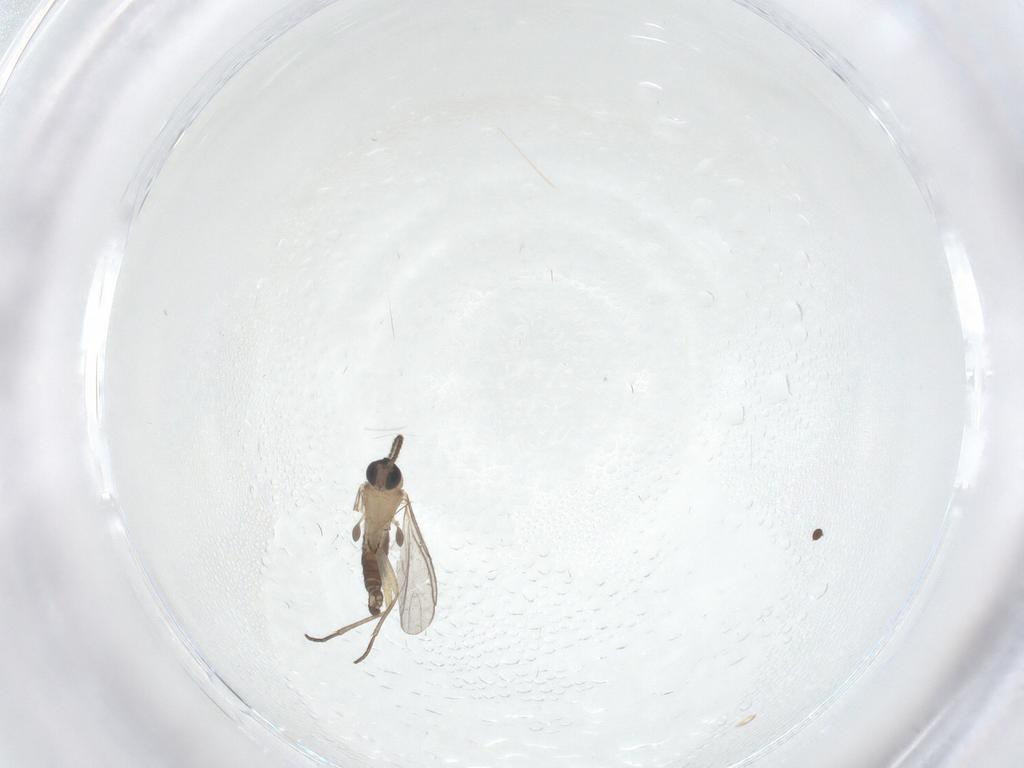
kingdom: Animalia
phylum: Arthropoda
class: Insecta
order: Diptera
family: Sciaridae
